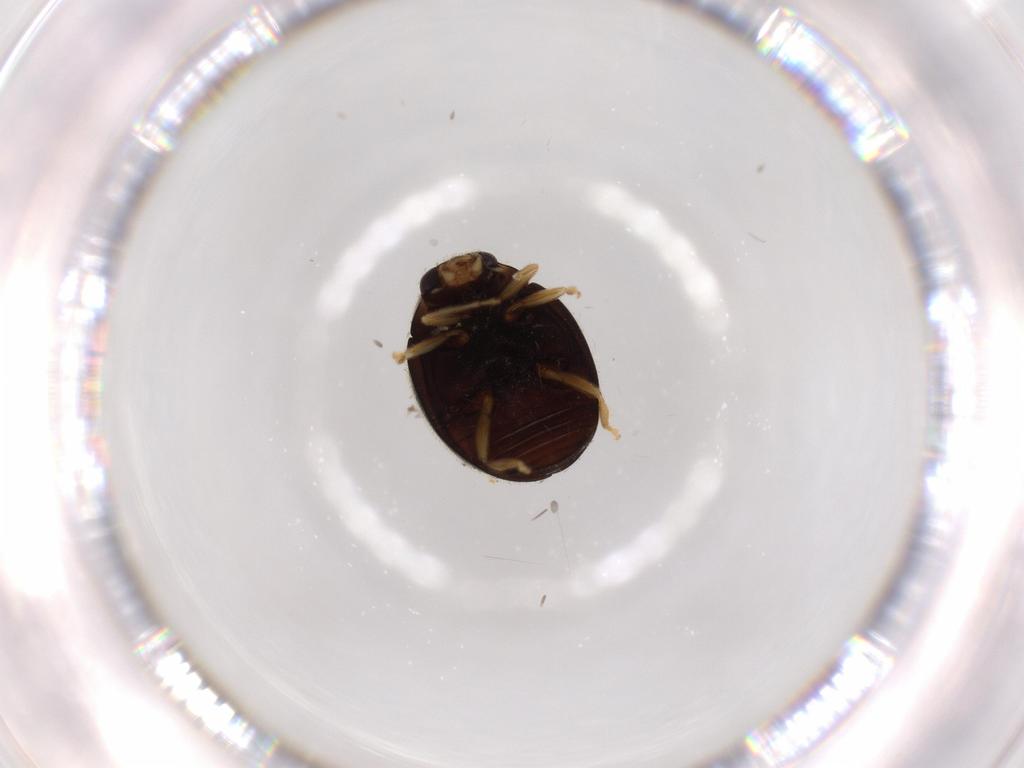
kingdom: Animalia
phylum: Arthropoda
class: Insecta
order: Coleoptera
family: Coccinellidae
